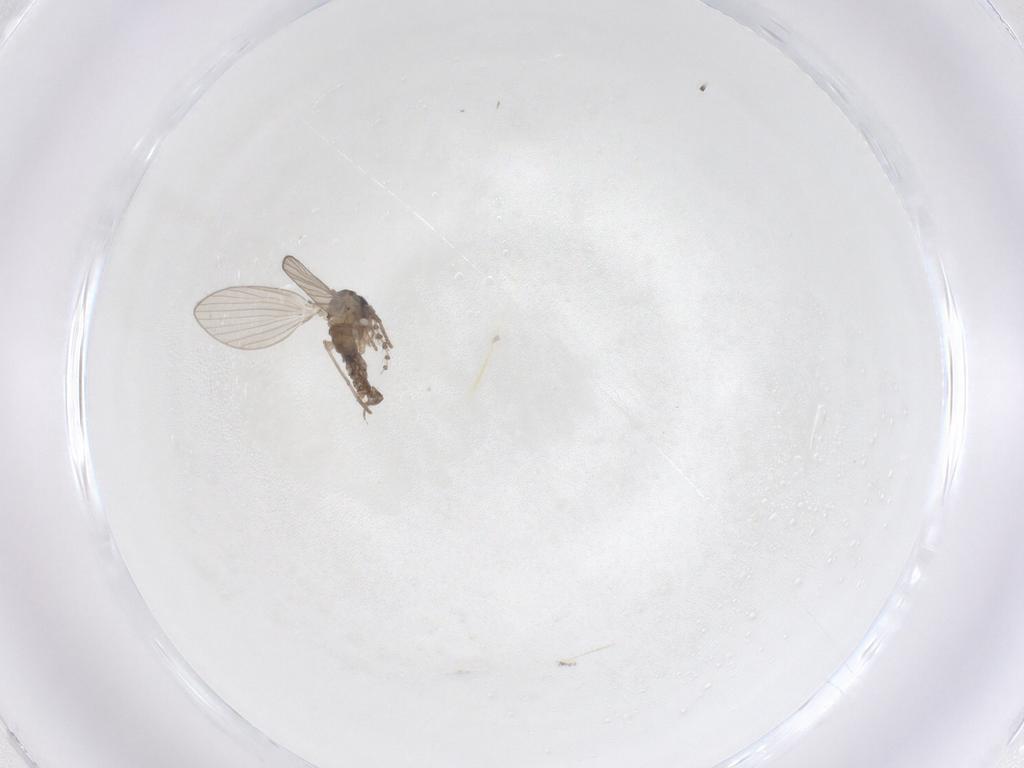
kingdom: Animalia
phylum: Arthropoda
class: Insecta
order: Diptera
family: Psychodidae
